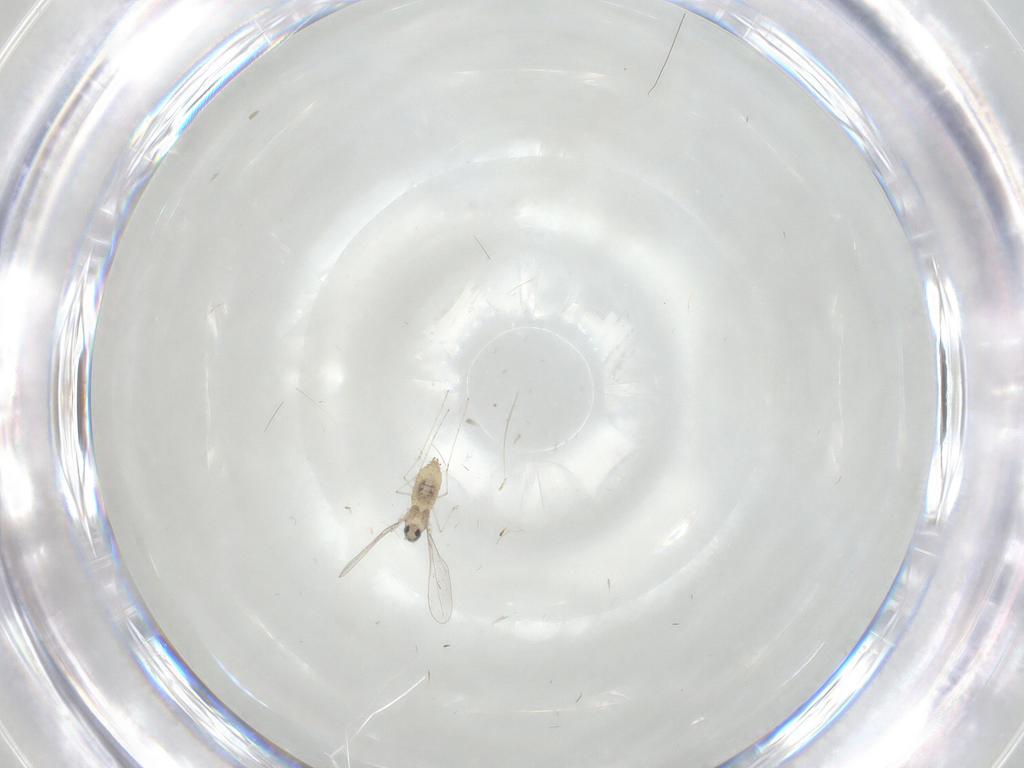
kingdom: Animalia
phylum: Arthropoda
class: Insecta
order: Diptera
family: Cecidomyiidae
